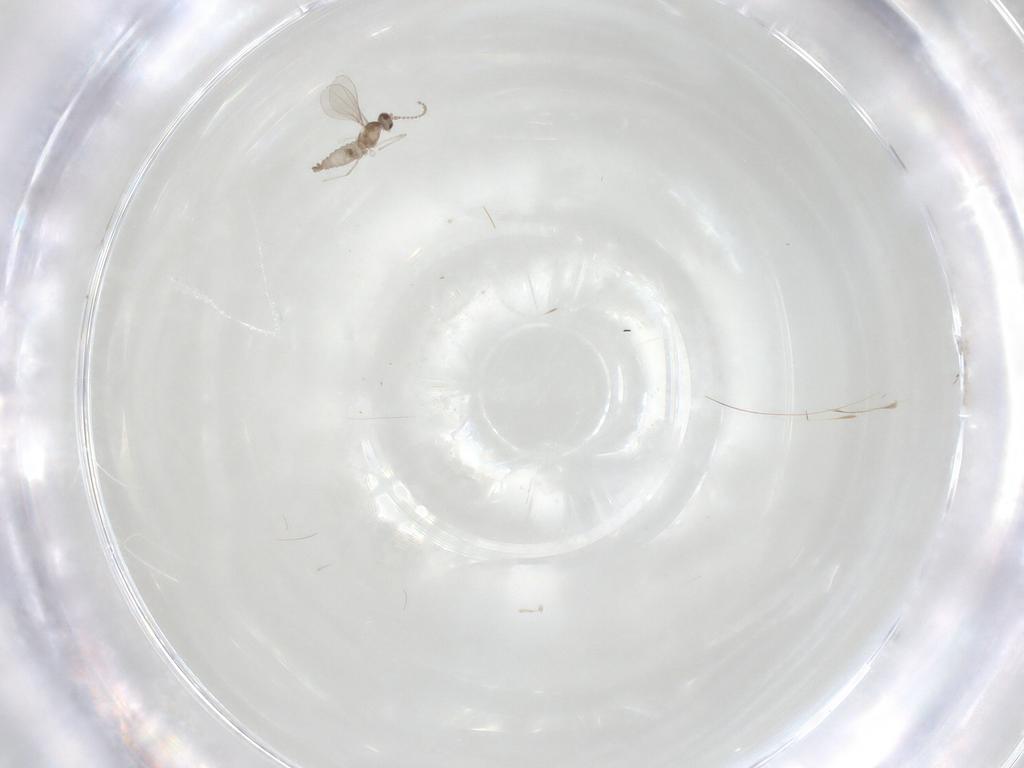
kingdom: Animalia
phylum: Arthropoda
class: Insecta
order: Diptera
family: Cecidomyiidae
